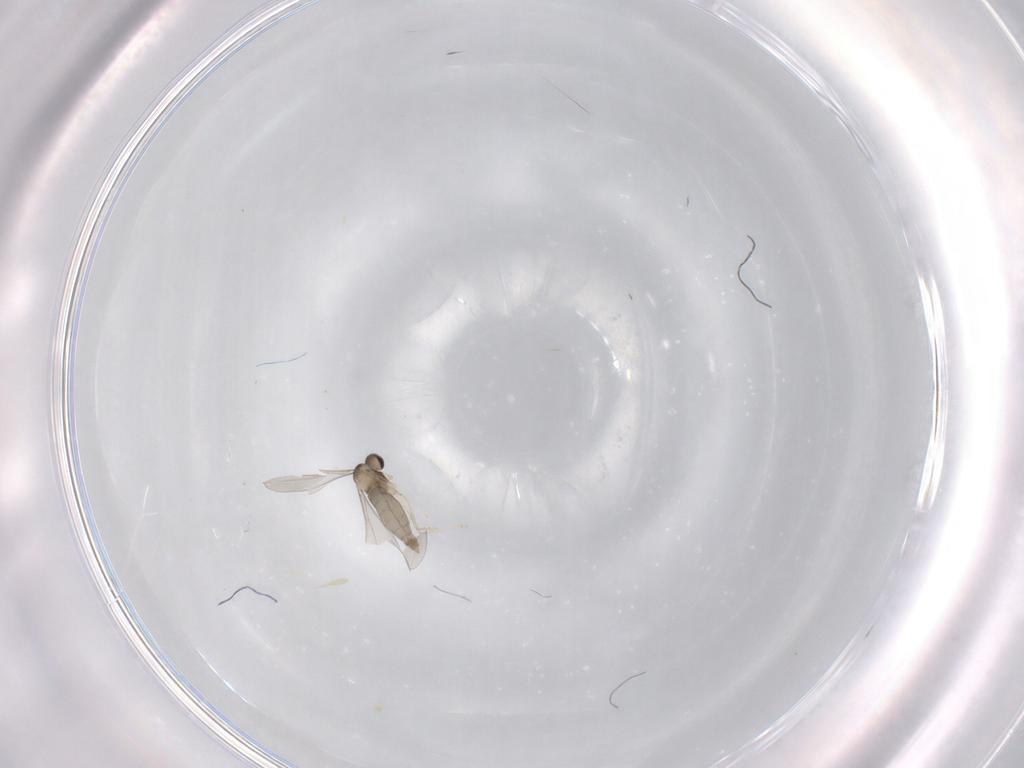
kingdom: Animalia
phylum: Arthropoda
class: Insecta
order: Diptera
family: Cecidomyiidae
